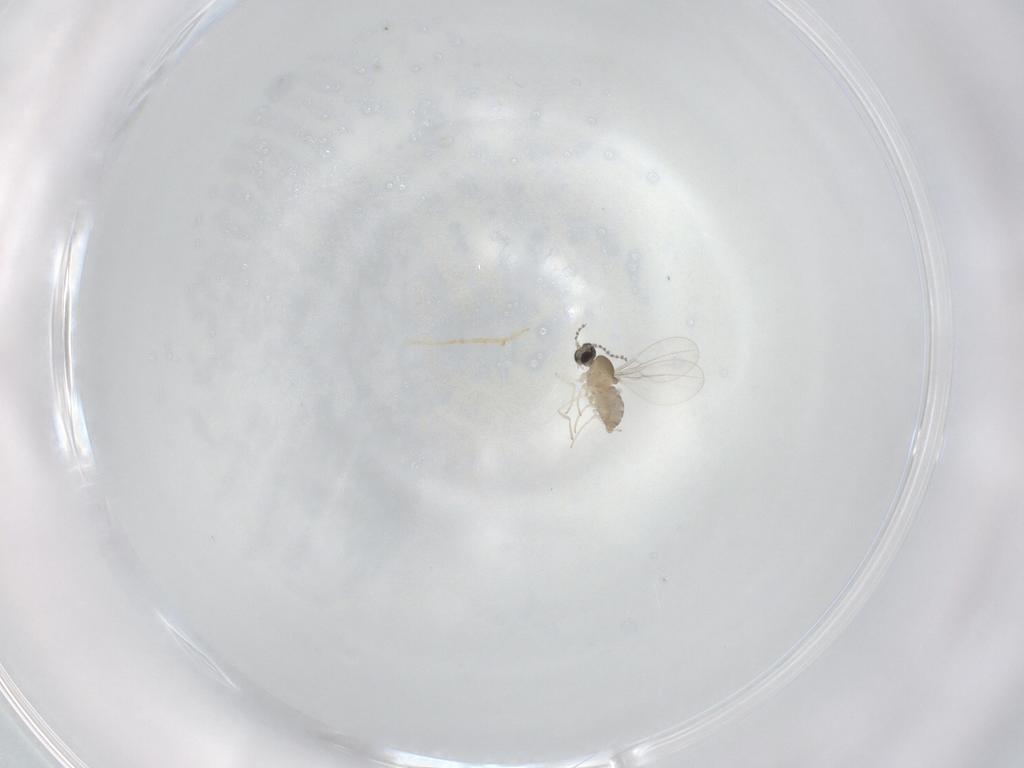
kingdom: Animalia
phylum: Arthropoda
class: Insecta
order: Diptera
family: Cecidomyiidae
